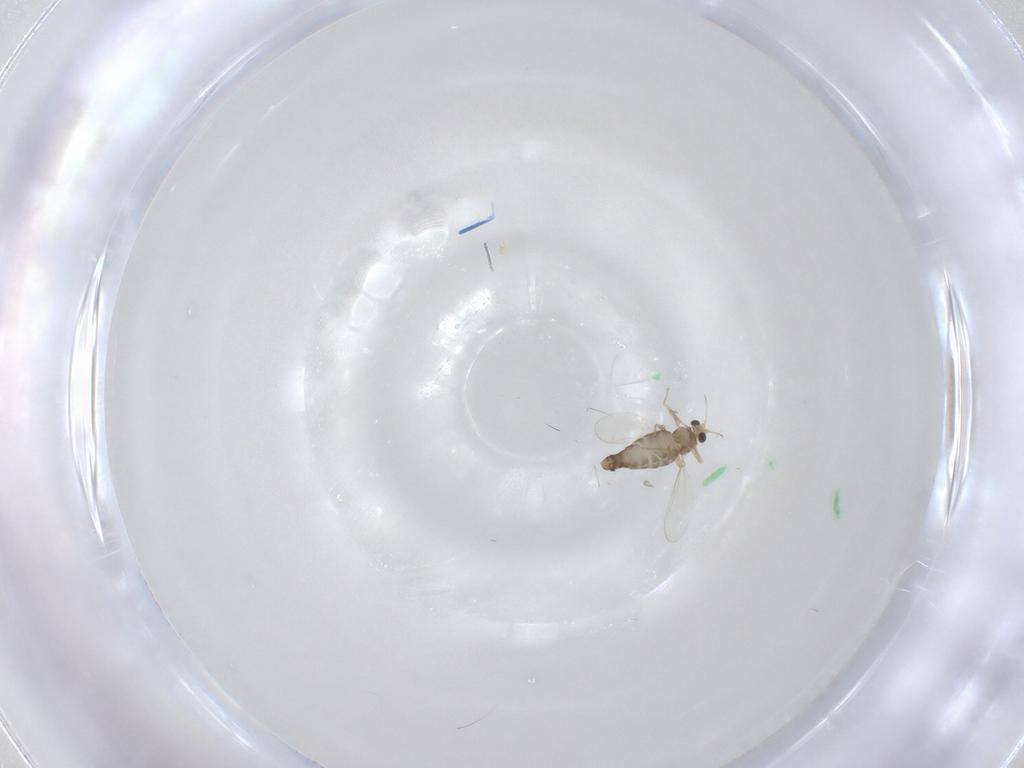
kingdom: Animalia
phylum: Arthropoda
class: Insecta
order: Diptera
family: Chironomidae
